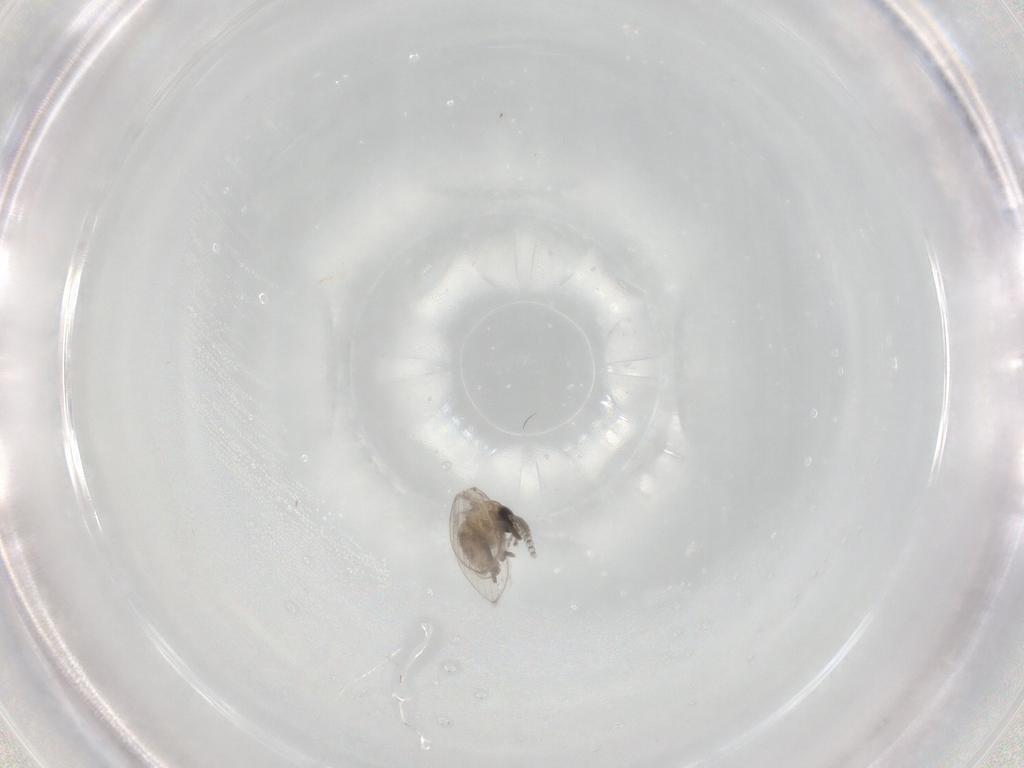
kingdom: Animalia
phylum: Arthropoda
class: Insecta
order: Diptera
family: Psychodidae
